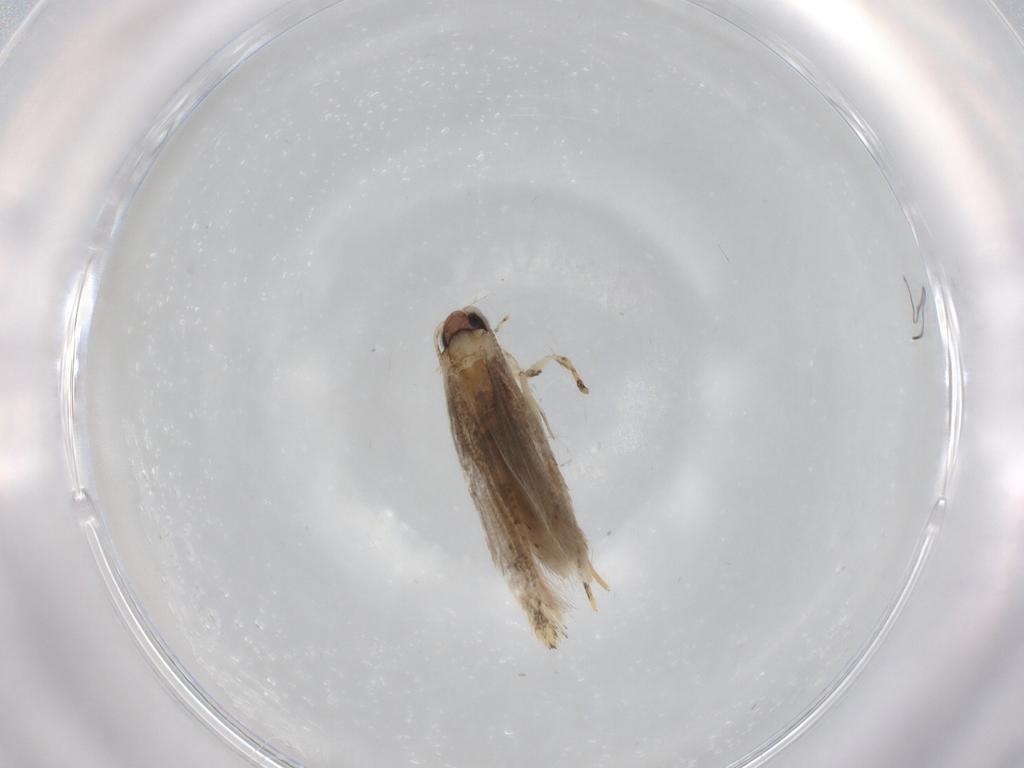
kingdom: Animalia
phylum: Arthropoda
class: Insecta
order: Lepidoptera
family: Tineidae
